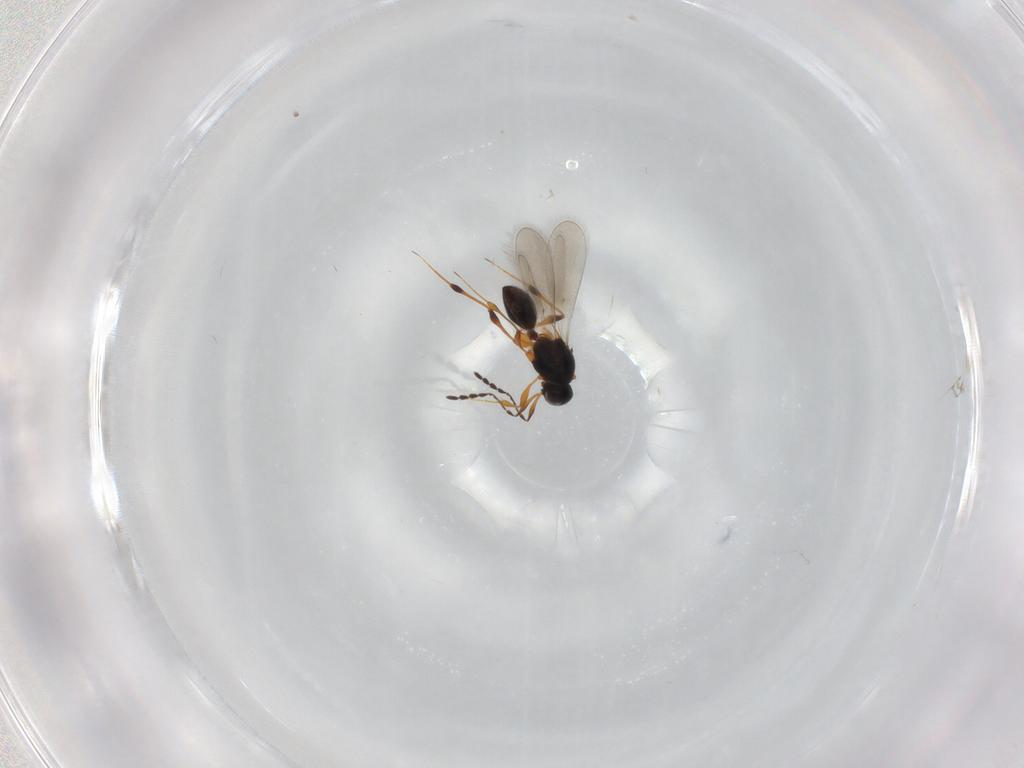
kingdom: Animalia
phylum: Arthropoda
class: Insecta
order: Hymenoptera
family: Platygastridae
